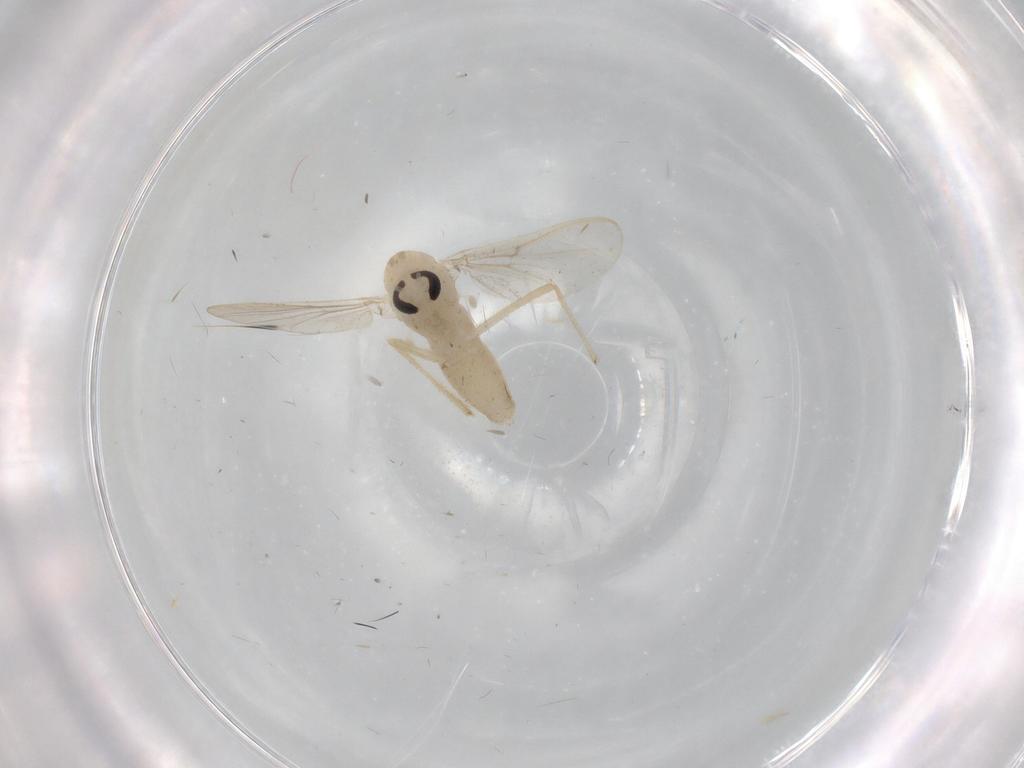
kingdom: Animalia
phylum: Arthropoda
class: Insecta
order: Diptera
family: Chironomidae
